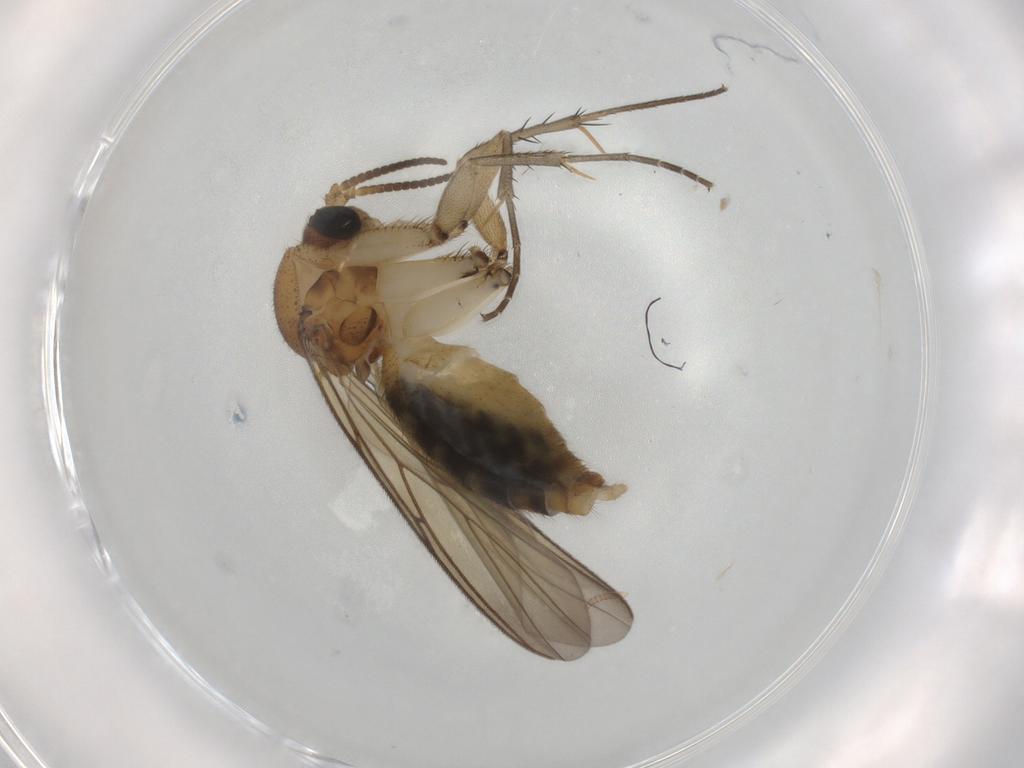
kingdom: Animalia
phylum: Arthropoda
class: Insecta
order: Diptera
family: Mycetophilidae
